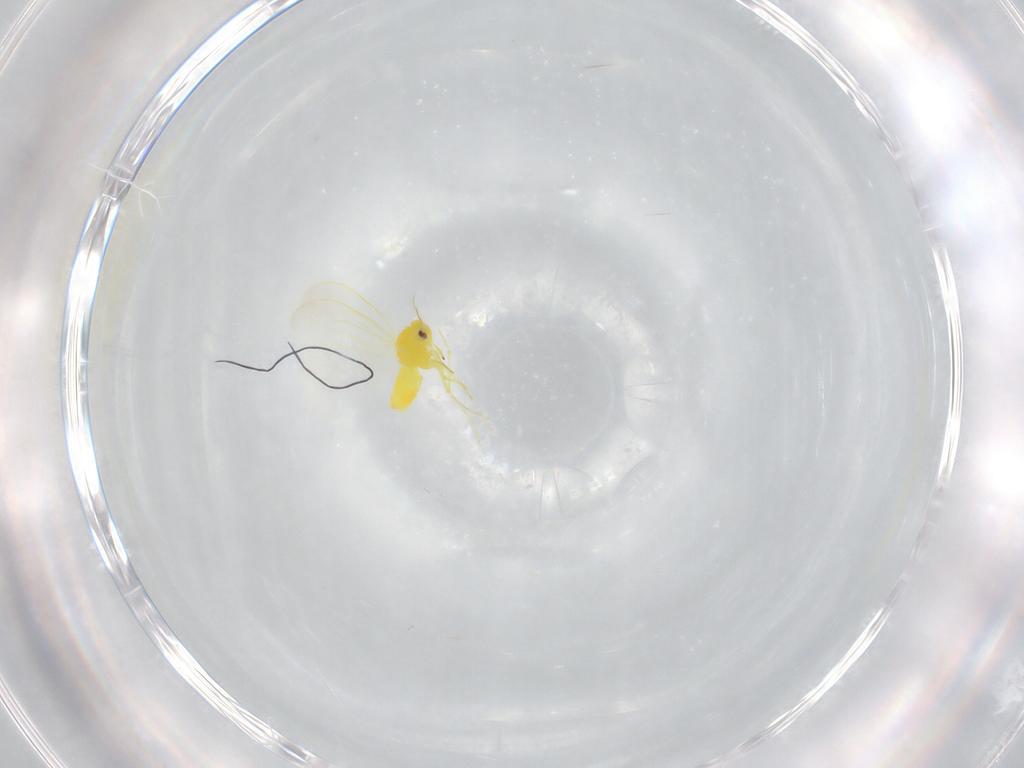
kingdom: Animalia
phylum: Arthropoda
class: Insecta
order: Hemiptera
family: Aleyrodidae
